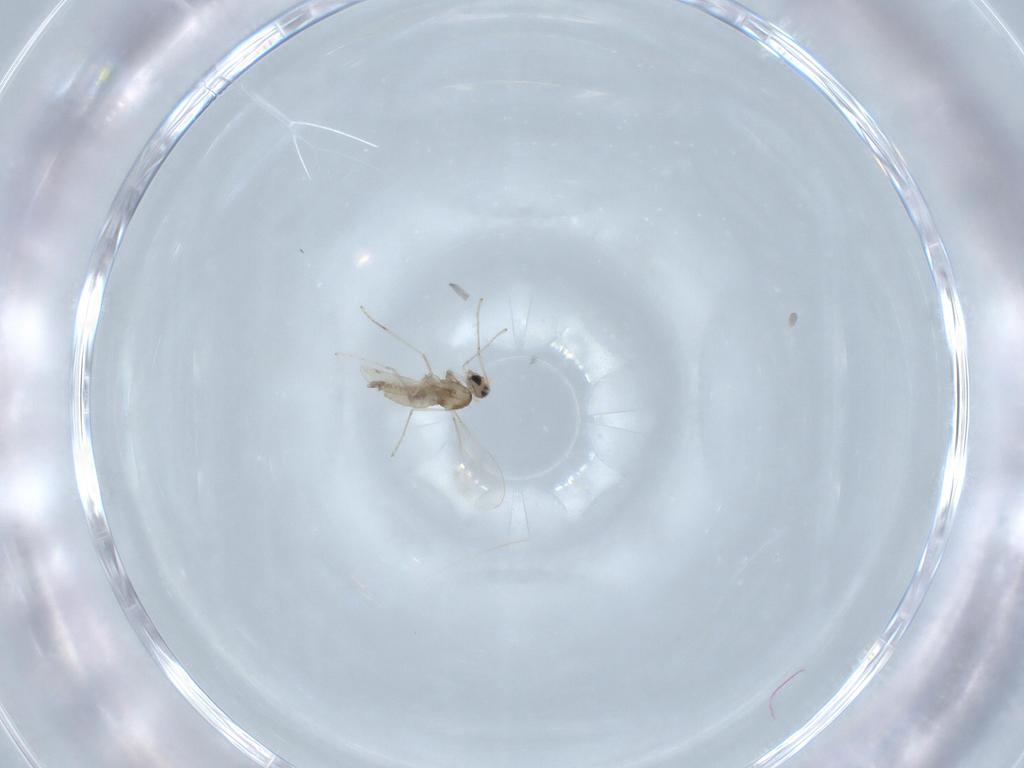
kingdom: Animalia
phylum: Arthropoda
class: Insecta
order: Diptera
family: Cecidomyiidae
